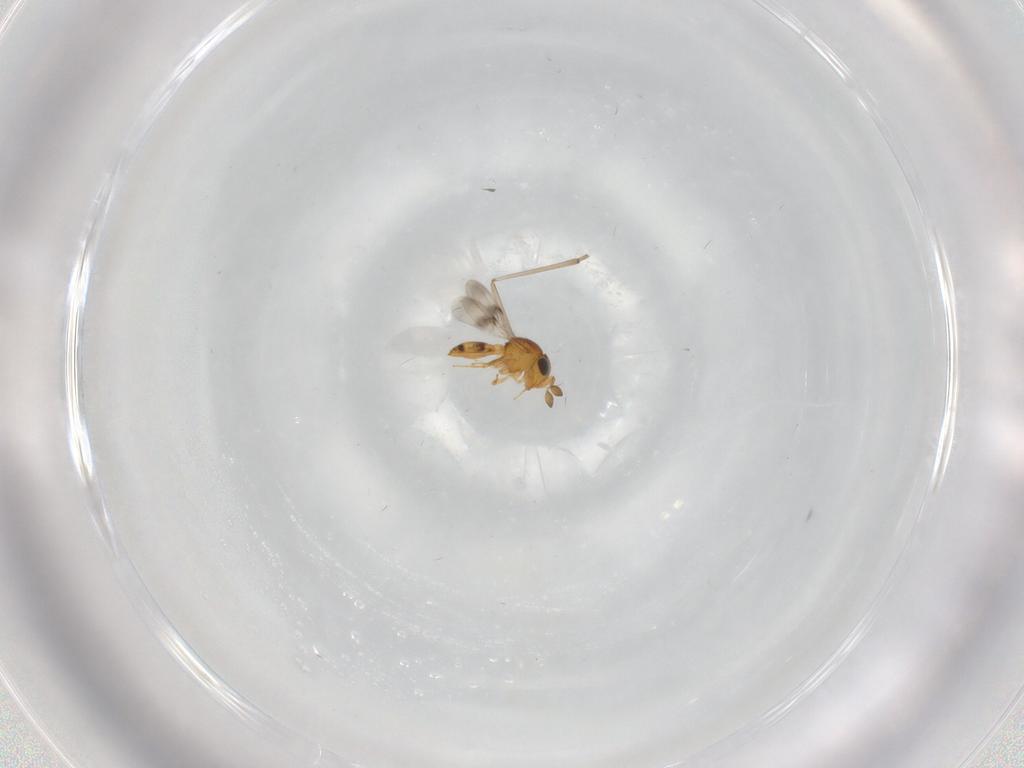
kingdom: Animalia
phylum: Arthropoda
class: Insecta
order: Hymenoptera
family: Scelionidae
